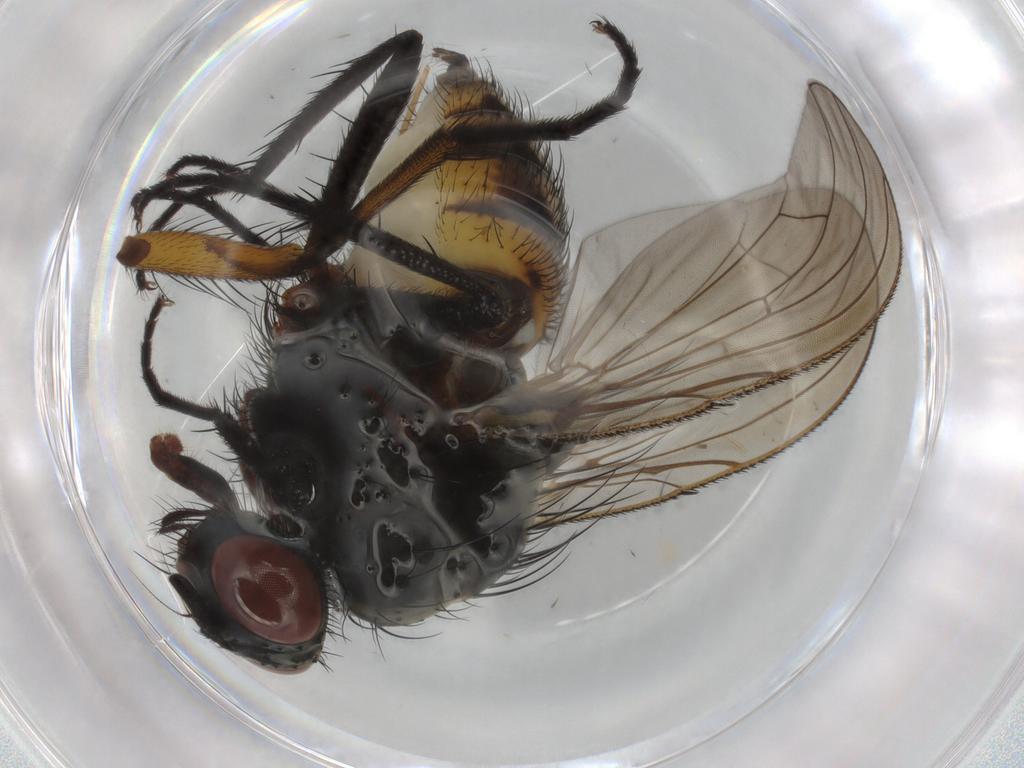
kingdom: Animalia
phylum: Arthropoda
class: Insecta
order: Diptera
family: Anthomyiidae
